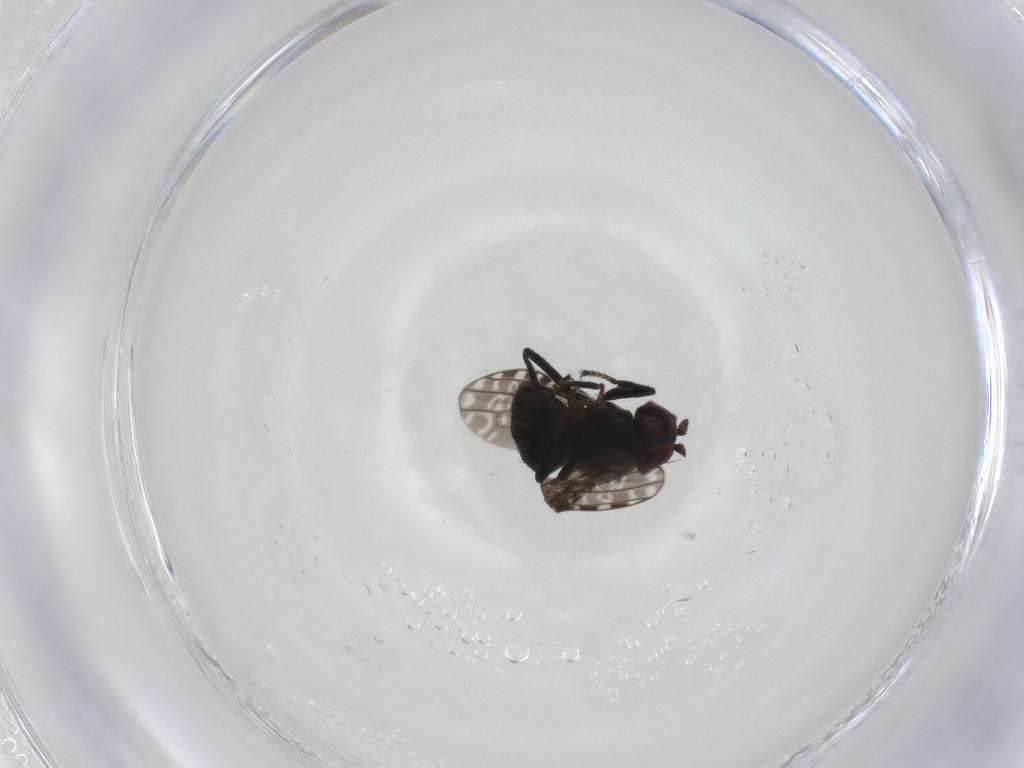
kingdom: Animalia
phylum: Arthropoda
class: Insecta
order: Diptera
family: Ephydridae
